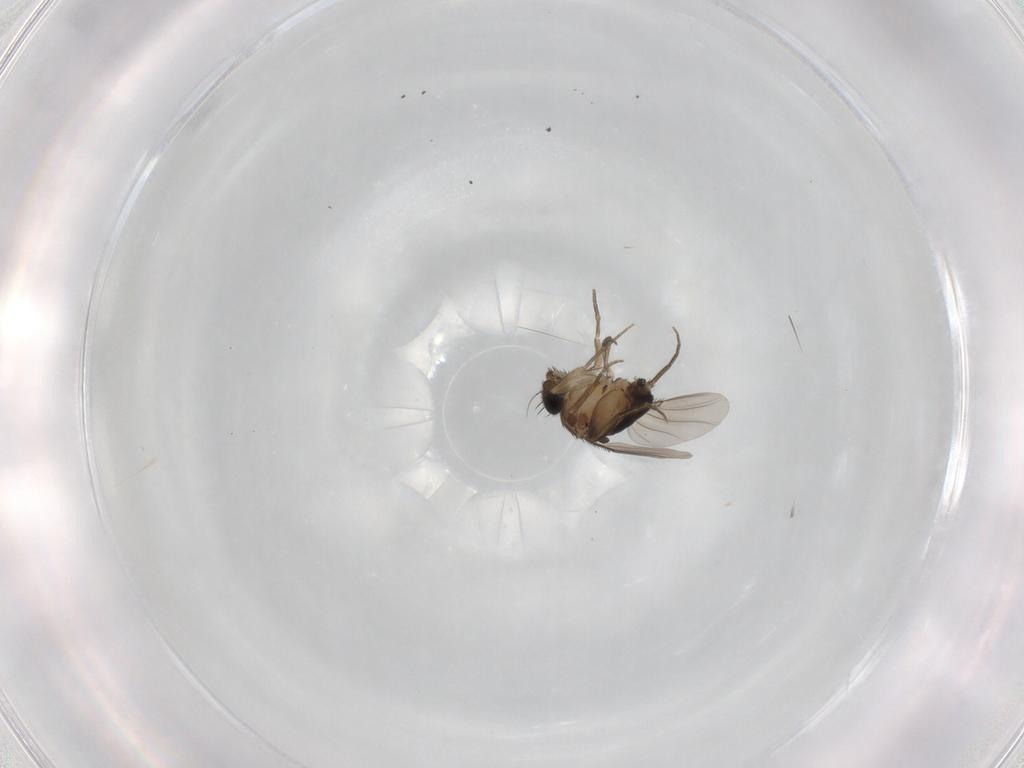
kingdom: Animalia
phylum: Arthropoda
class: Insecta
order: Diptera
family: Phoridae
